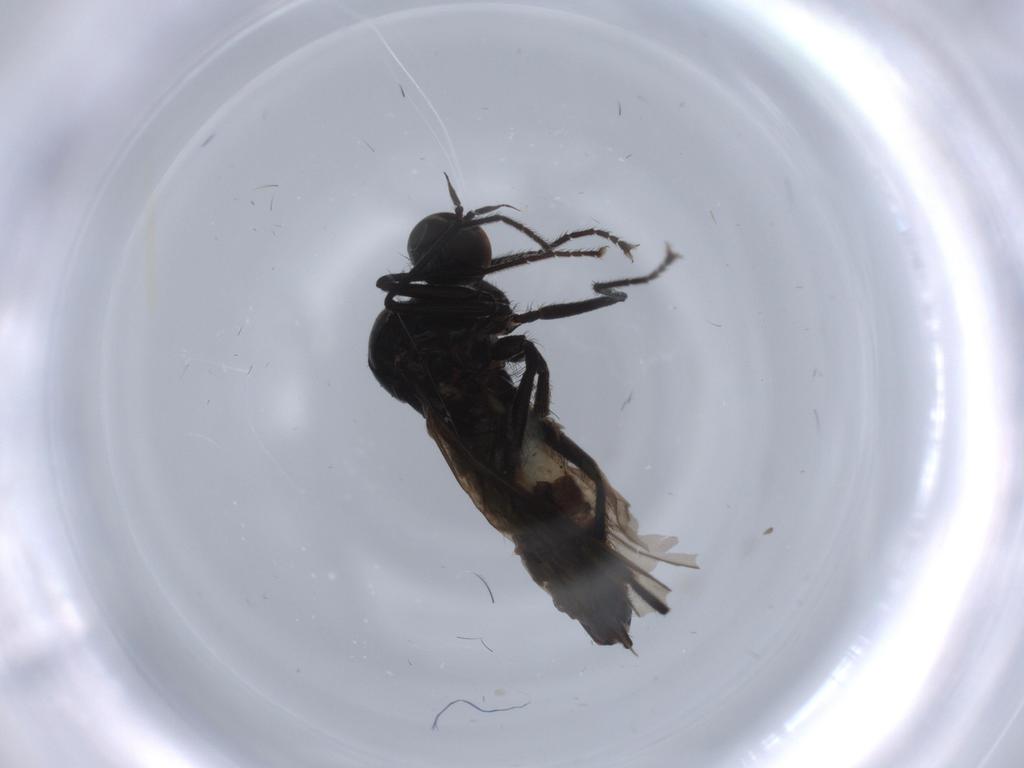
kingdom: Animalia
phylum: Arthropoda
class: Insecta
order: Diptera
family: Hybotidae
